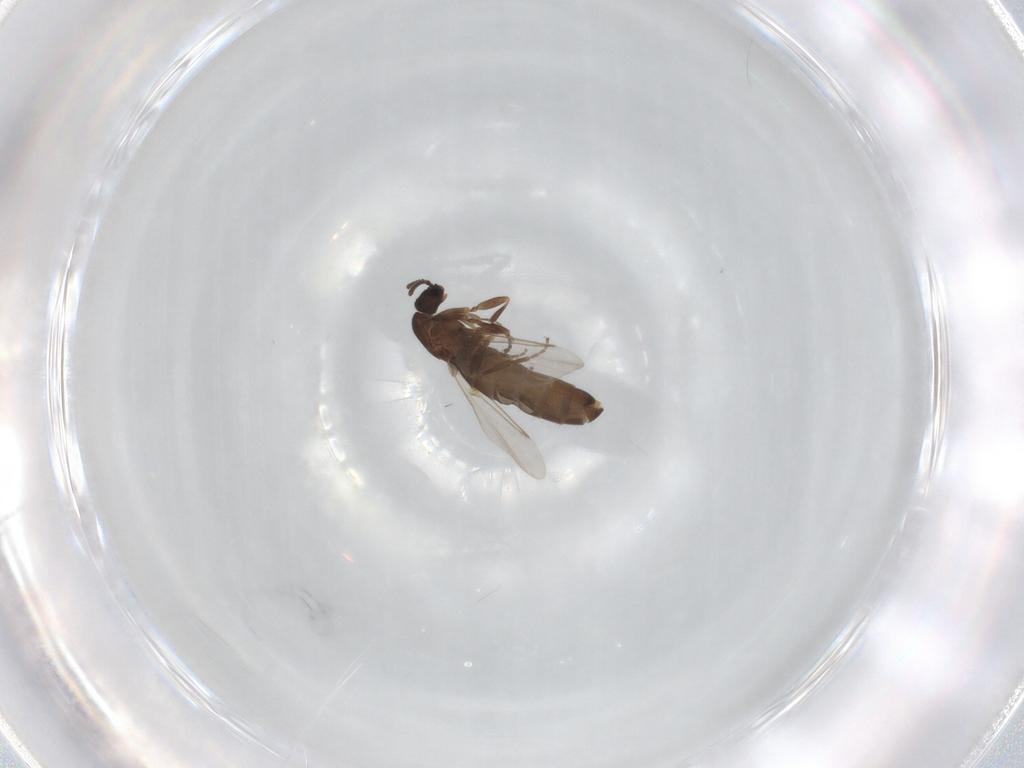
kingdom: Animalia
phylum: Arthropoda
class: Insecta
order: Diptera
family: Scatopsidae
